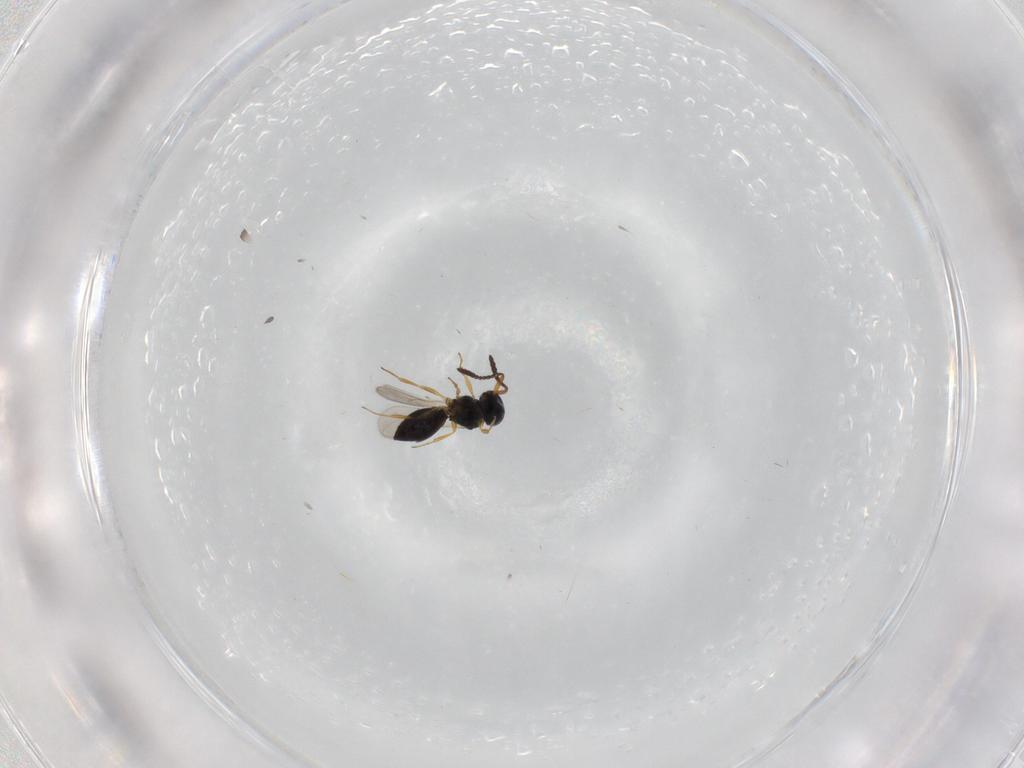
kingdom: Animalia
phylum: Arthropoda
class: Insecta
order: Hymenoptera
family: Scelionidae
